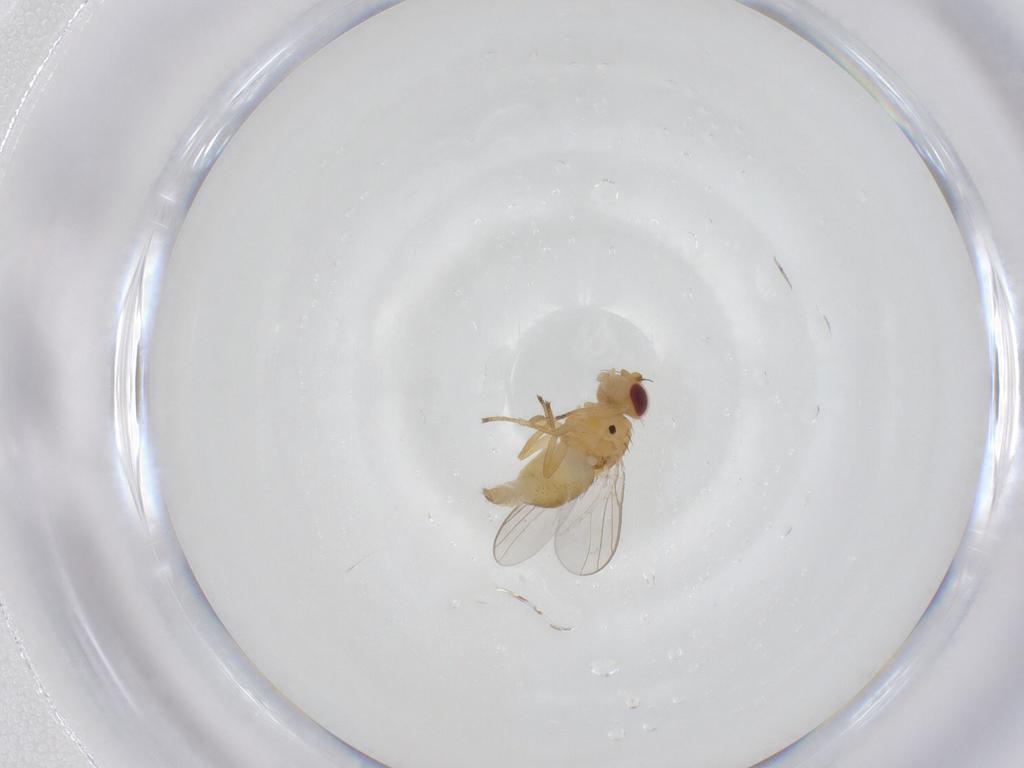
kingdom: Animalia
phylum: Arthropoda
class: Insecta
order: Diptera
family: Chloropidae
